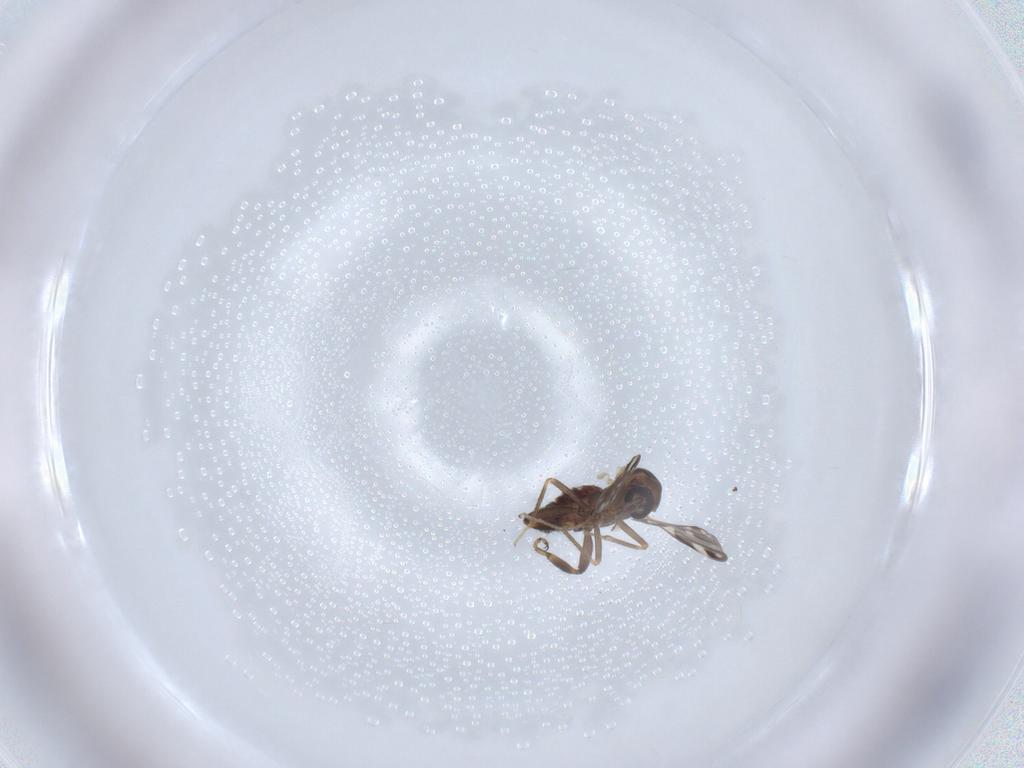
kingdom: Animalia
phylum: Arthropoda
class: Insecta
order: Diptera
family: Ceratopogonidae
